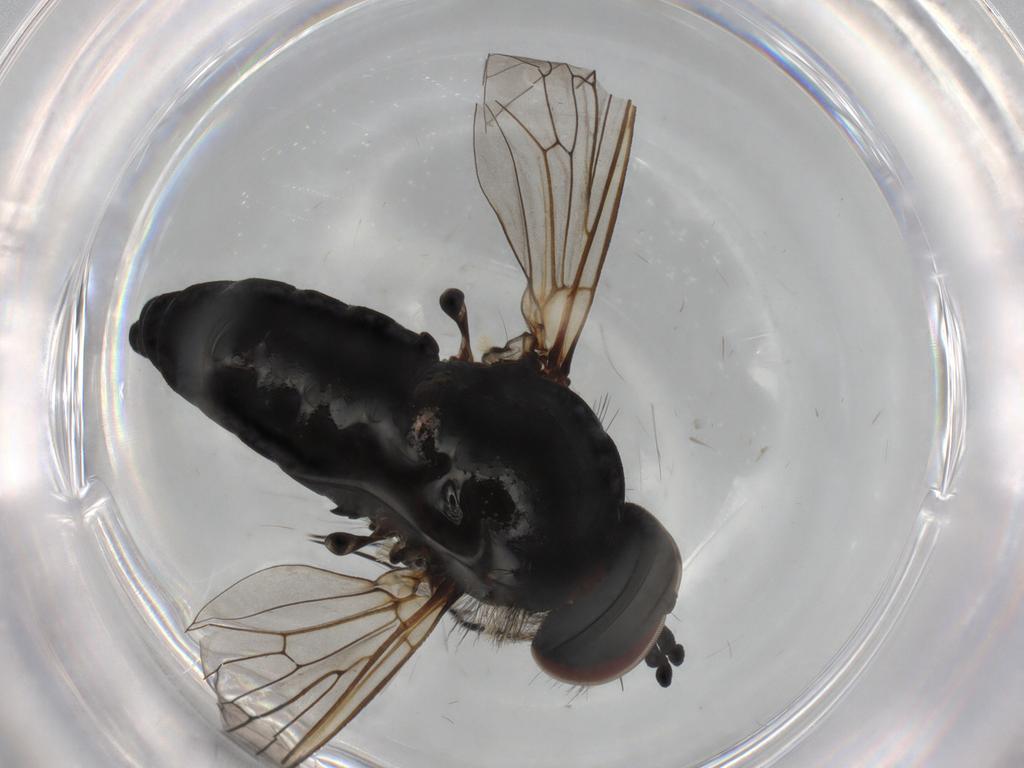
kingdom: Animalia
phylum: Arthropoda
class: Insecta
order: Diptera
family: Bombyliidae
